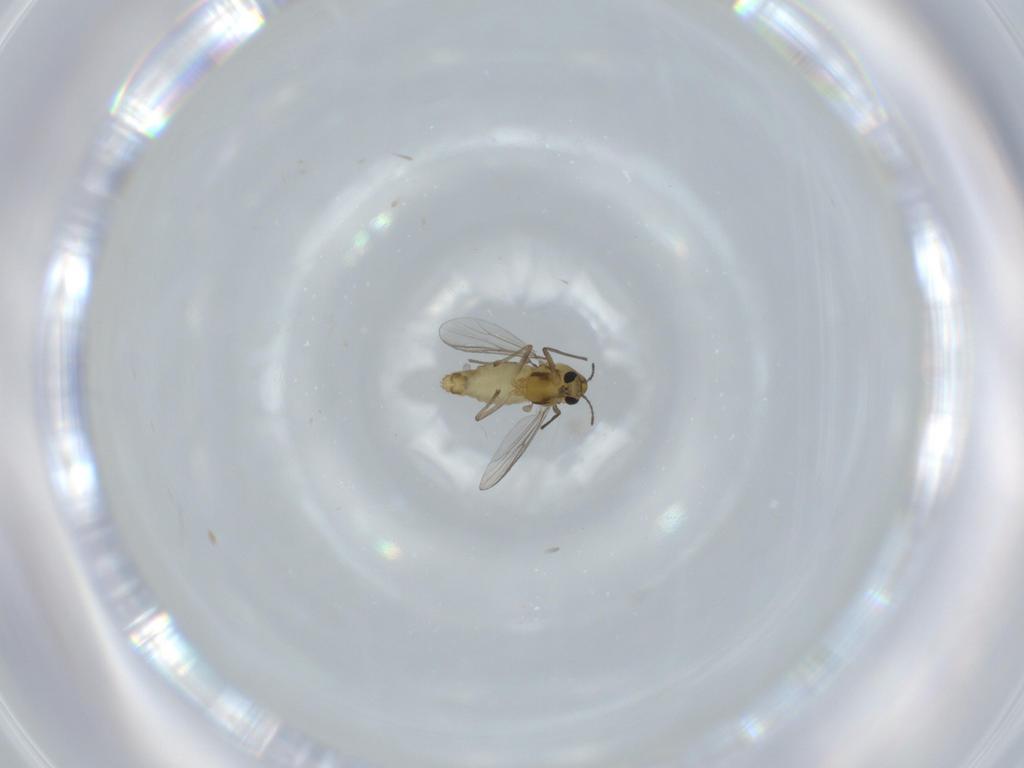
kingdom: Animalia
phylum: Arthropoda
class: Insecta
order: Diptera
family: Chironomidae
